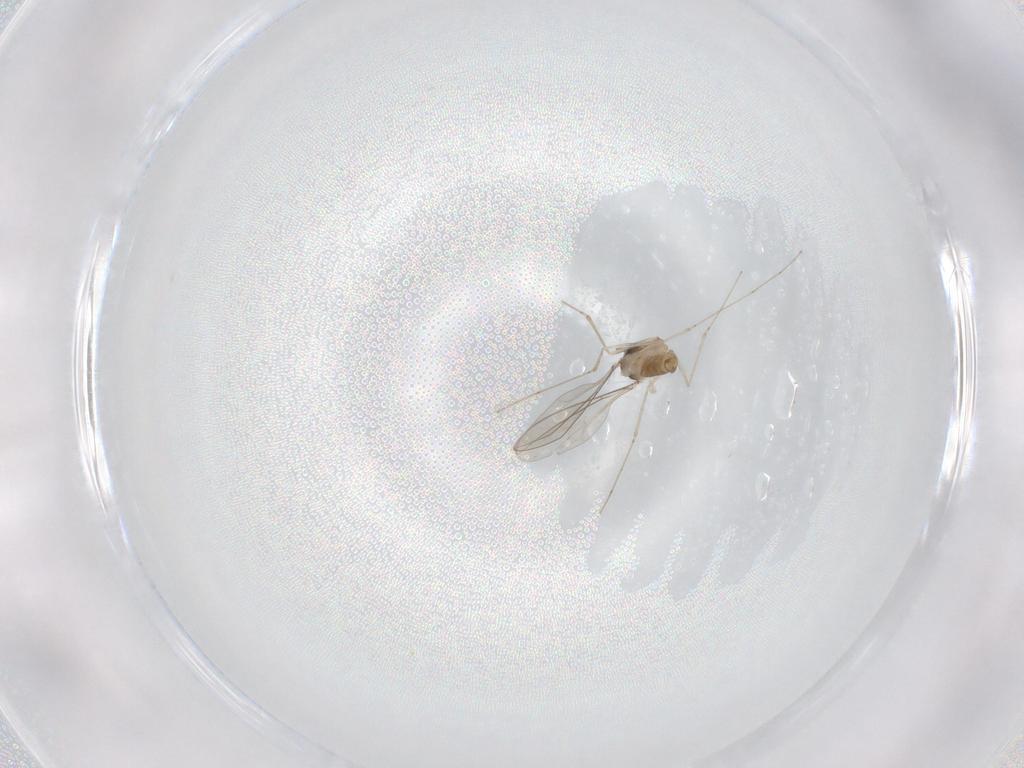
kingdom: Animalia
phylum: Arthropoda
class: Insecta
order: Diptera
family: Cecidomyiidae
